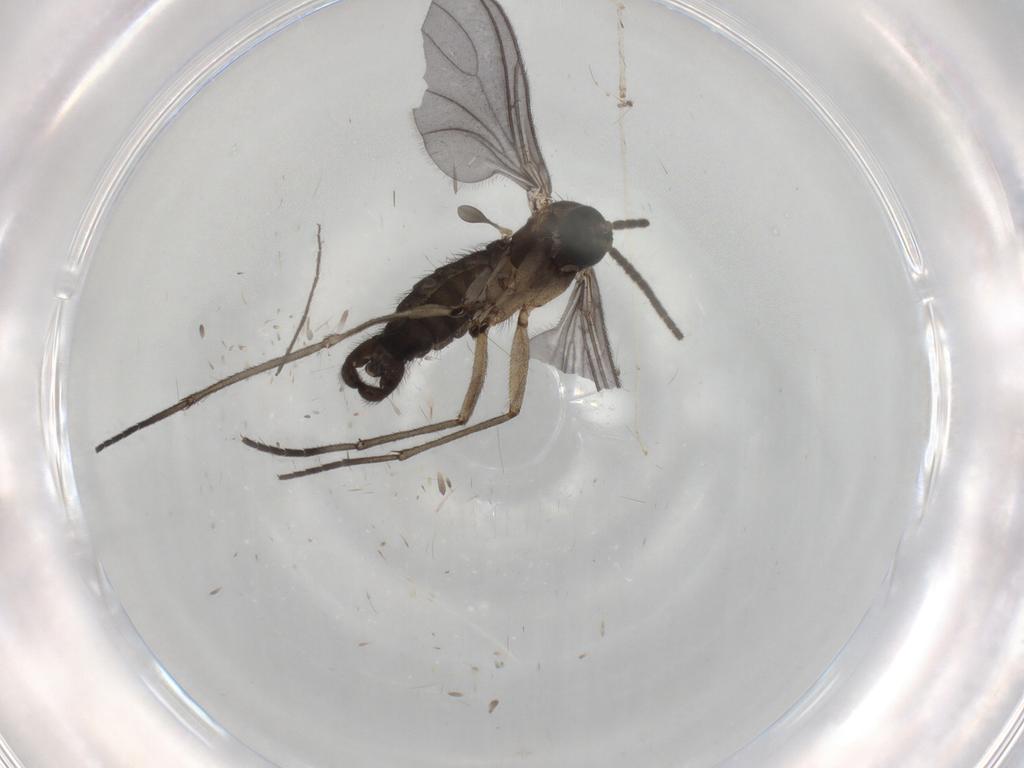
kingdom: Animalia
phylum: Arthropoda
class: Insecta
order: Diptera
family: Sciaridae
